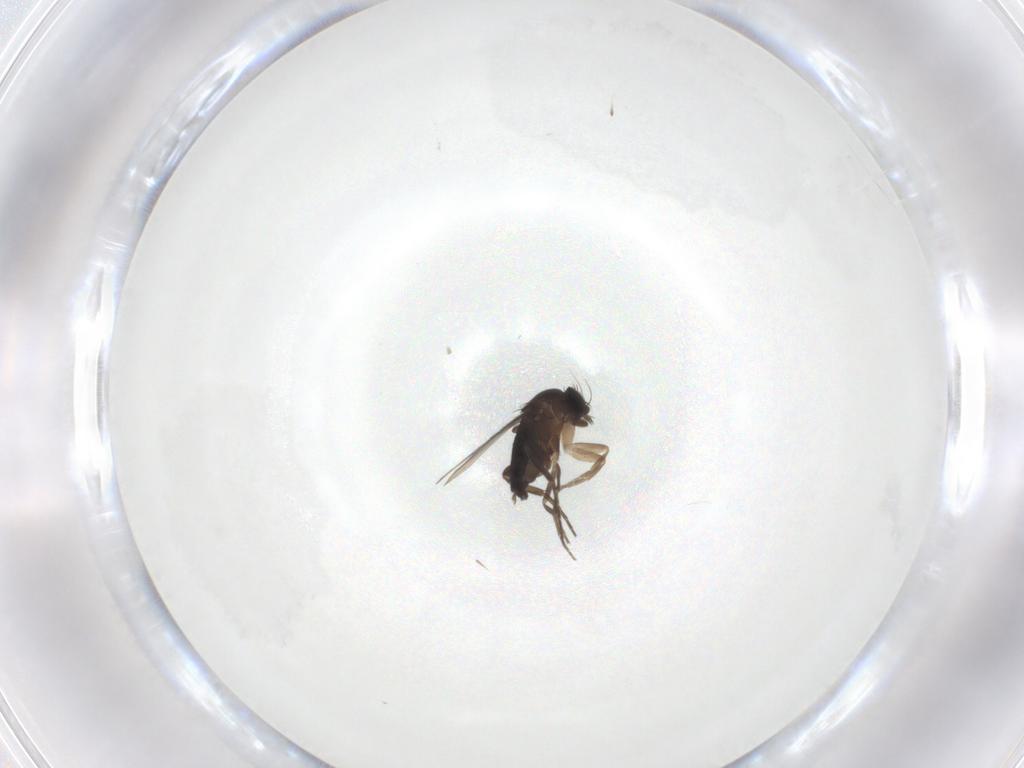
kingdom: Animalia
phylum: Arthropoda
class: Insecta
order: Diptera
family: Phoridae
